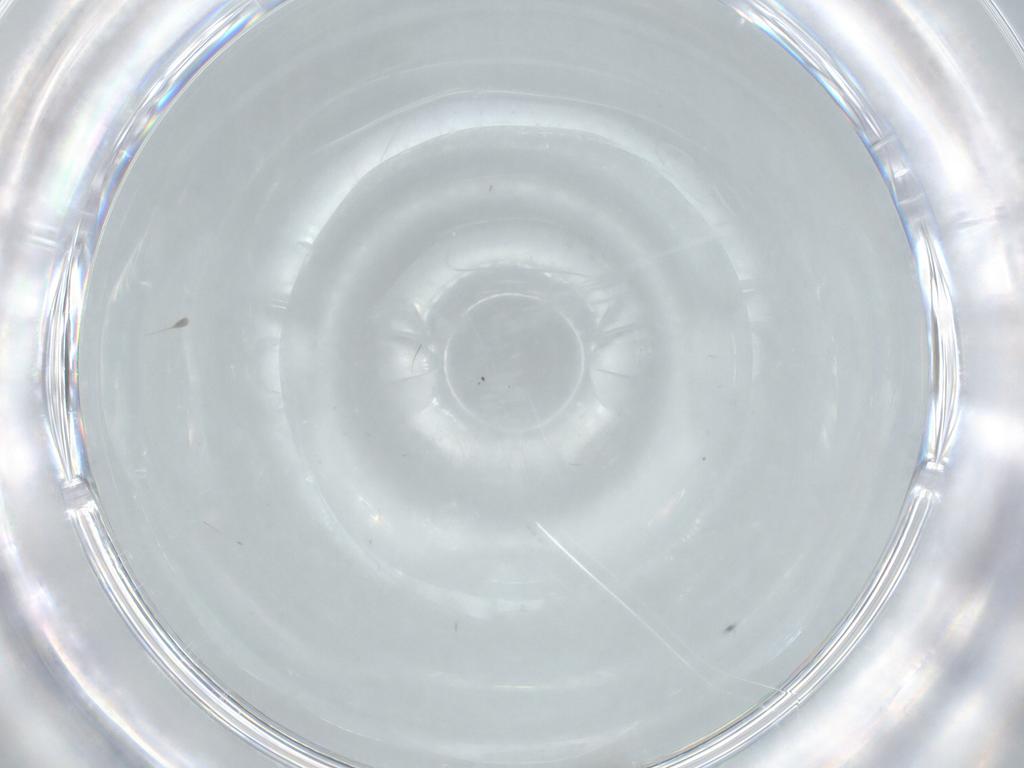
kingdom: Animalia
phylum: Arthropoda
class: Insecta
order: Diptera
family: Cecidomyiidae
